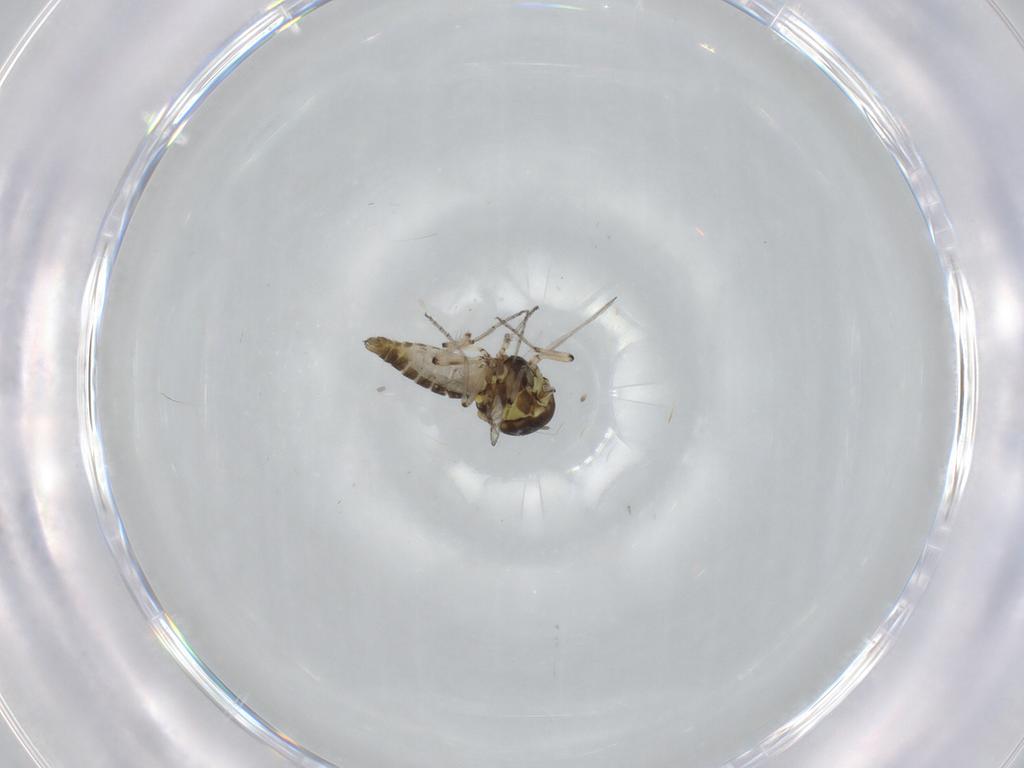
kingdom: Animalia
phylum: Arthropoda
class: Insecta
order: Diptera
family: Cecidomyiidae
